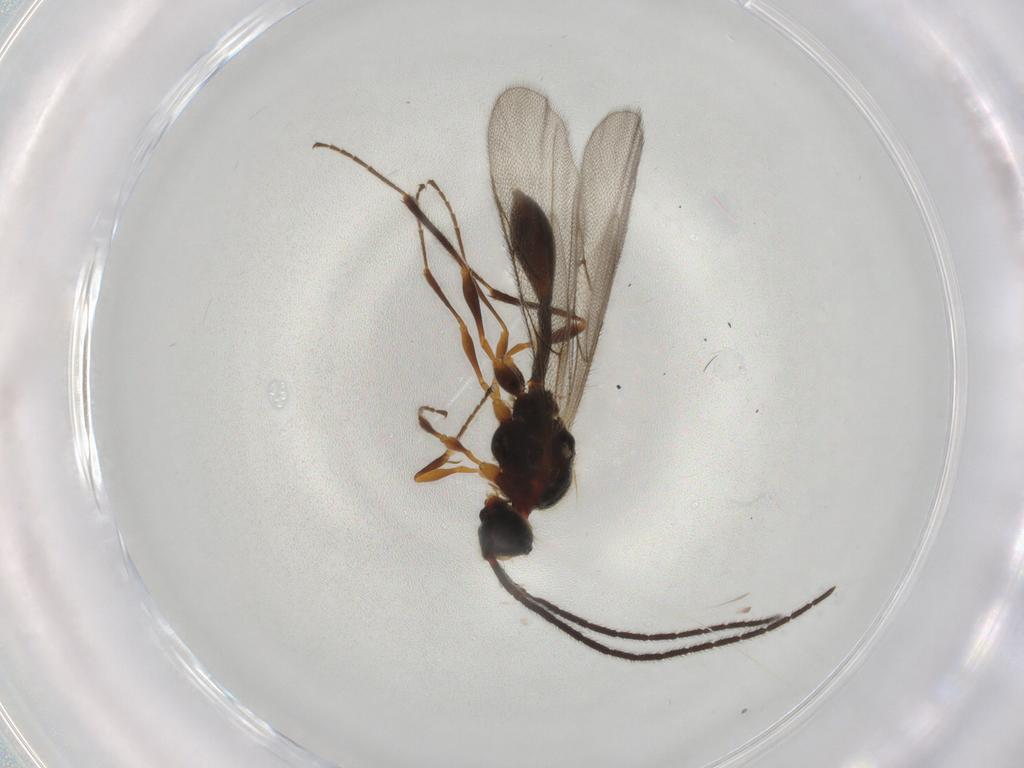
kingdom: Animalia
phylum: Arthropoda
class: Insecta
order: Hymenoptera
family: Diapriidae
